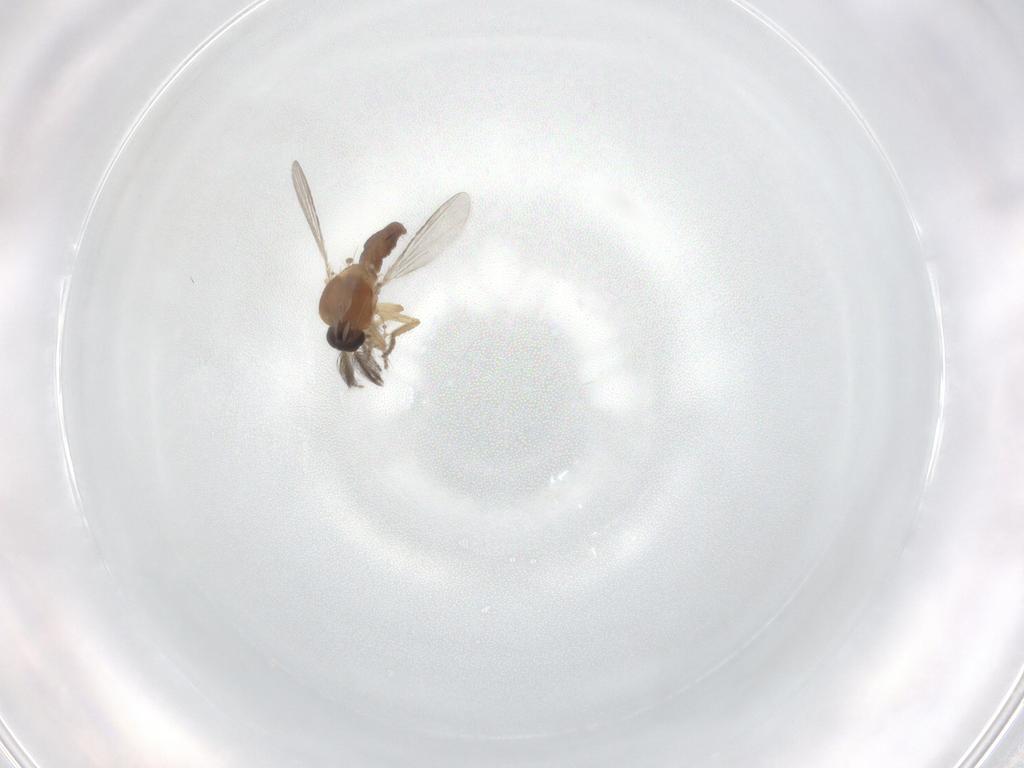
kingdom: Animalia
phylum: Arthropoda
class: Insecta
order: Diptera
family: Ceratopogonidae
